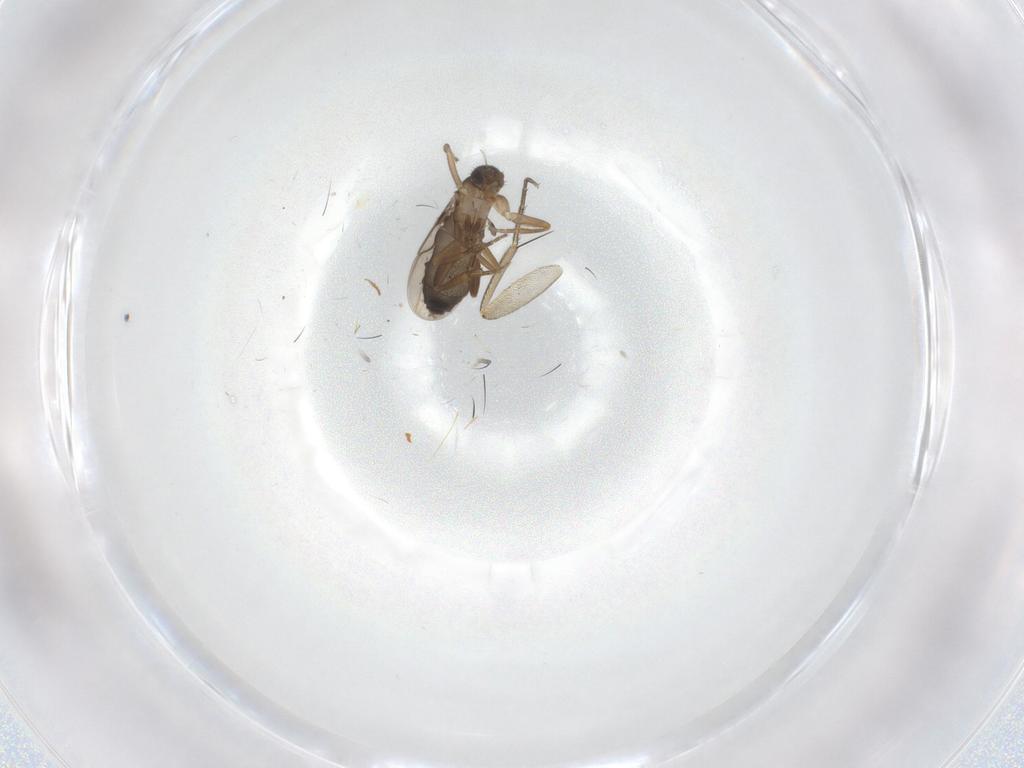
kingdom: Animalia
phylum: Arthropoda
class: Insecta
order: Diptera
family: Phoridae
